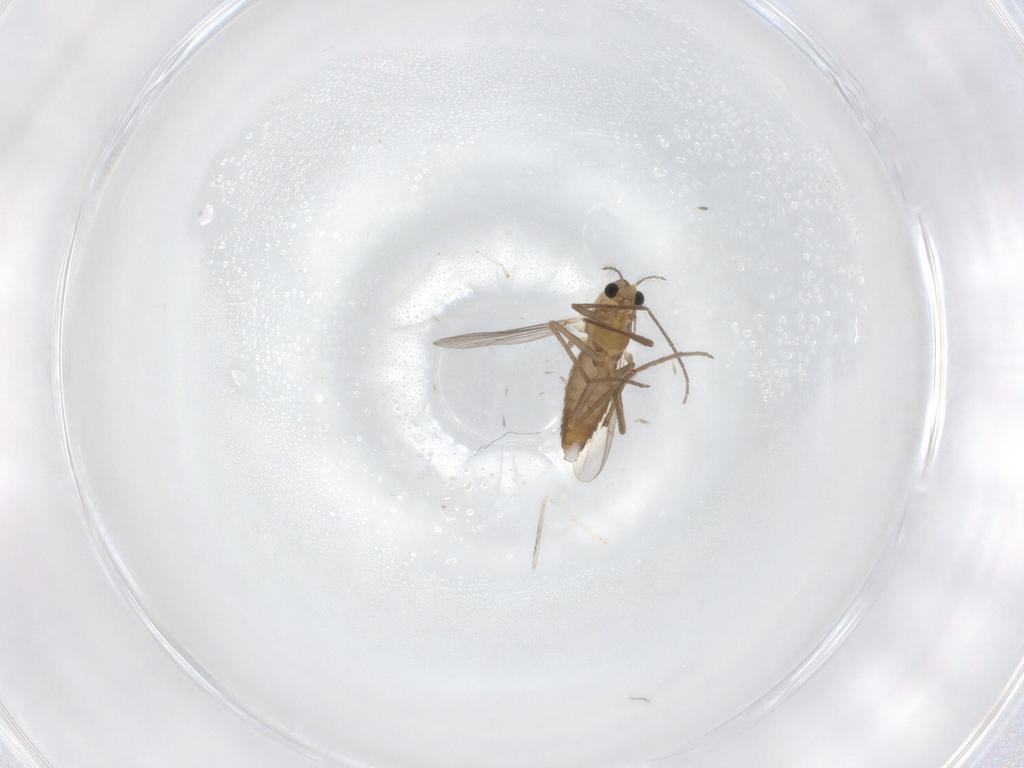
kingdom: Animalia
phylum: Arthropoda
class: Insecta
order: Diptera
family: Chironomidae
